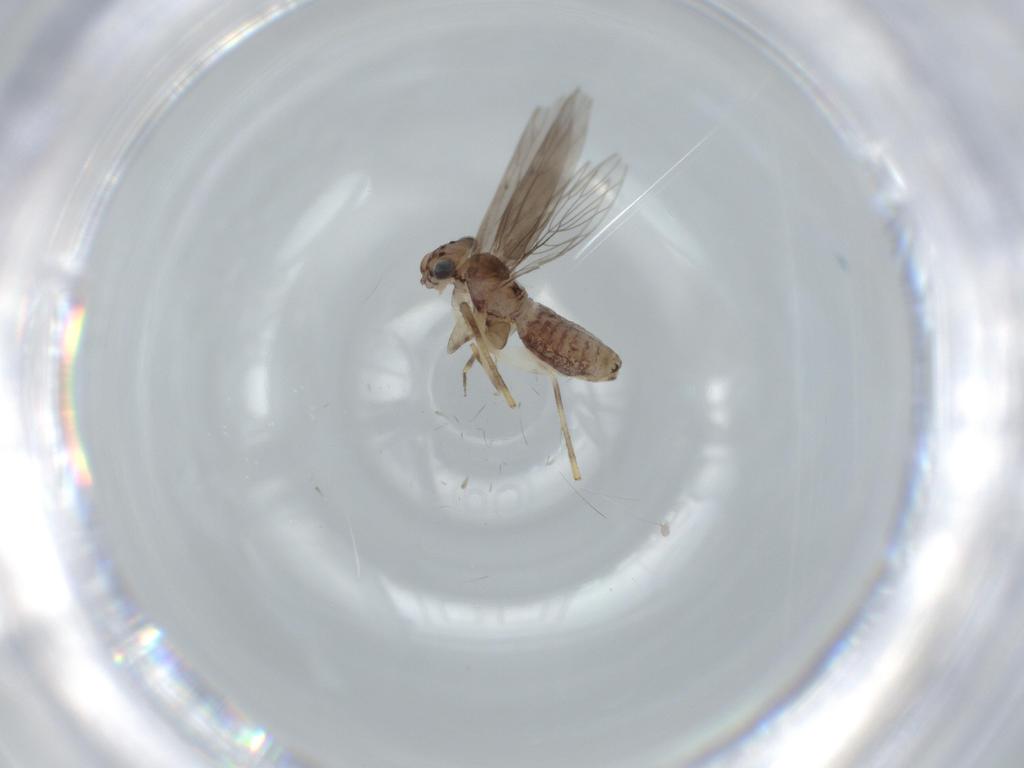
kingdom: Animalia
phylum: Arthropoda
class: Insecta
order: Psocodea
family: Lepidopsocidae
